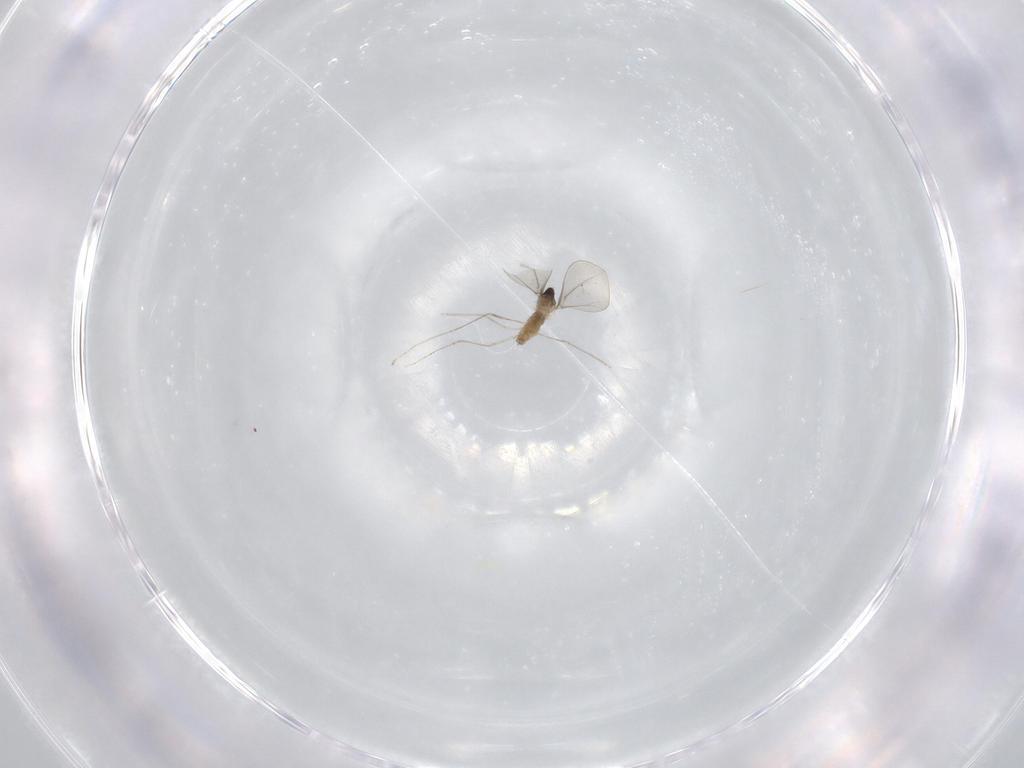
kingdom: Animalia
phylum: Arthropoda
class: Insecta
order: Diptera
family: Cecidomyiidae
